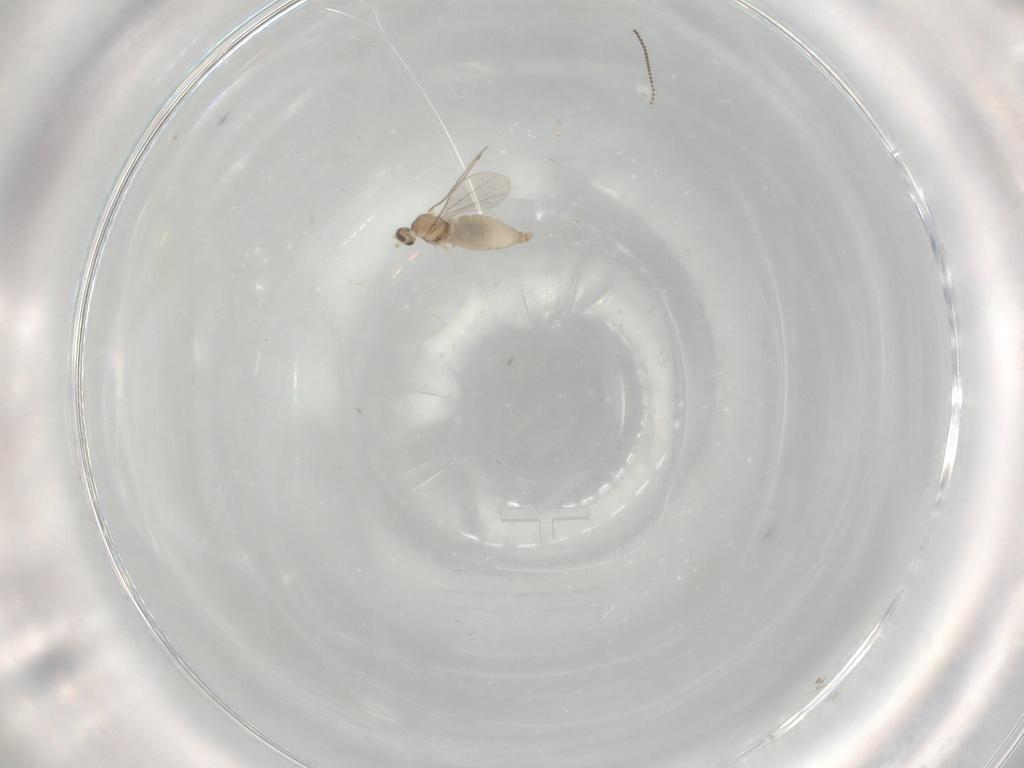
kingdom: Animalia
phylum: Arthropoda
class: Insecta
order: Diptera
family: Cecidomyiidae
